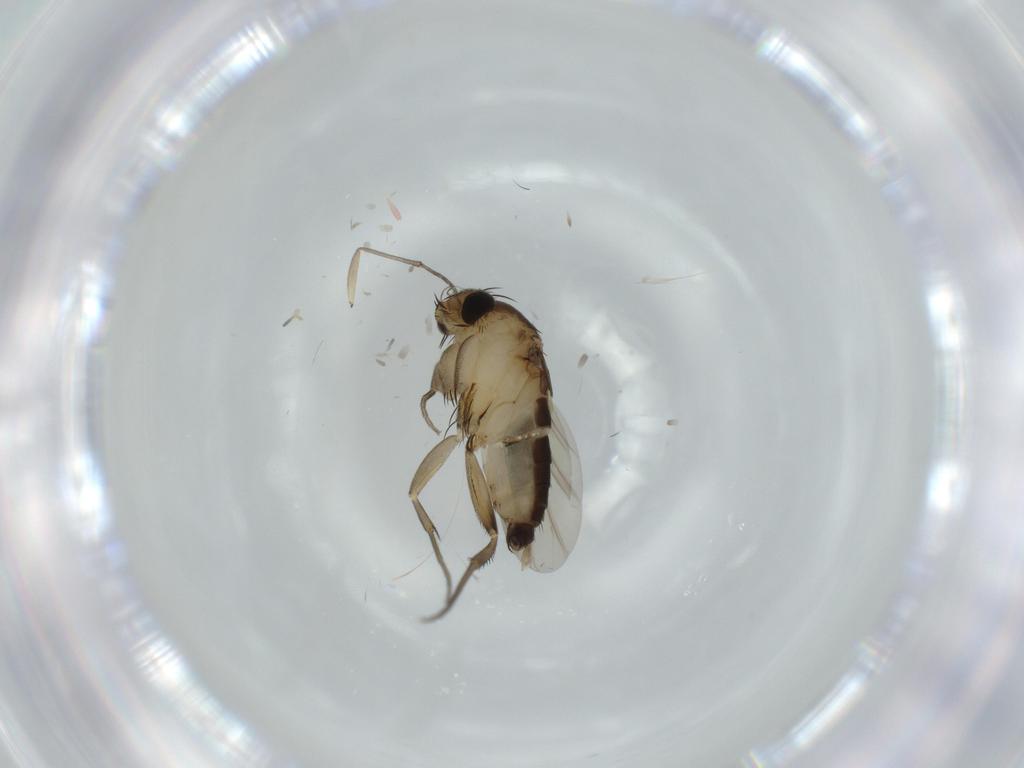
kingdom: Animalia
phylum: Arthropoda
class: Insecta
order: Diptera
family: Phoridae
